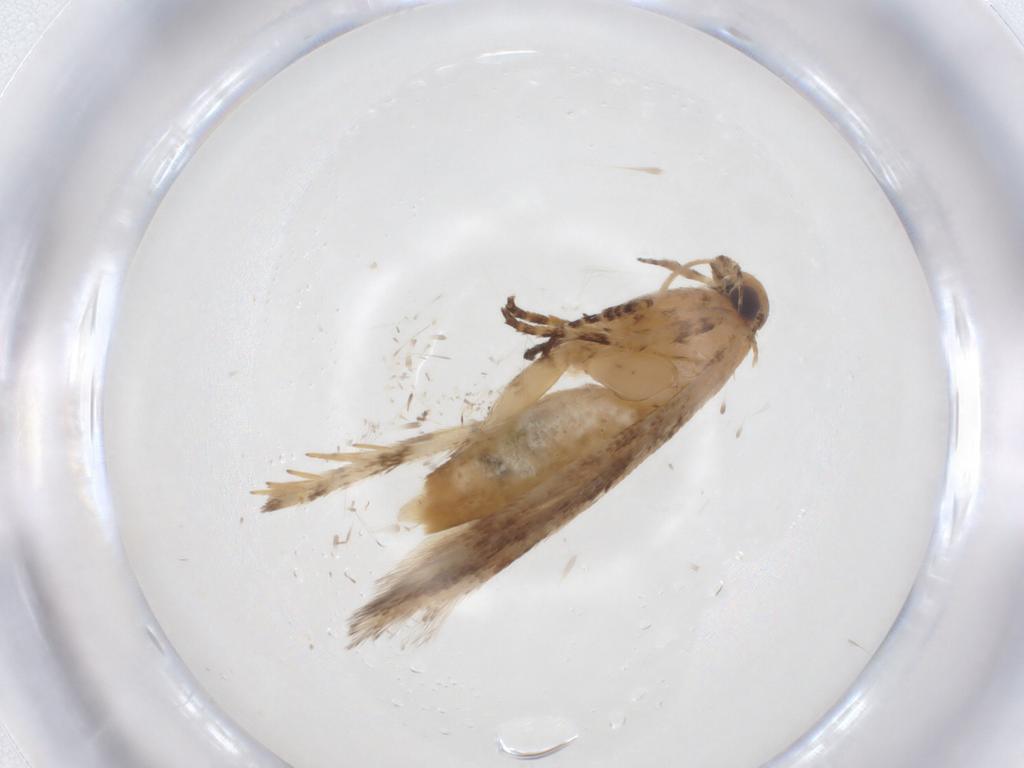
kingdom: Animalia
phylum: Arthropoda
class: Insecta
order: Lepidoptera
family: Gelechiidae
